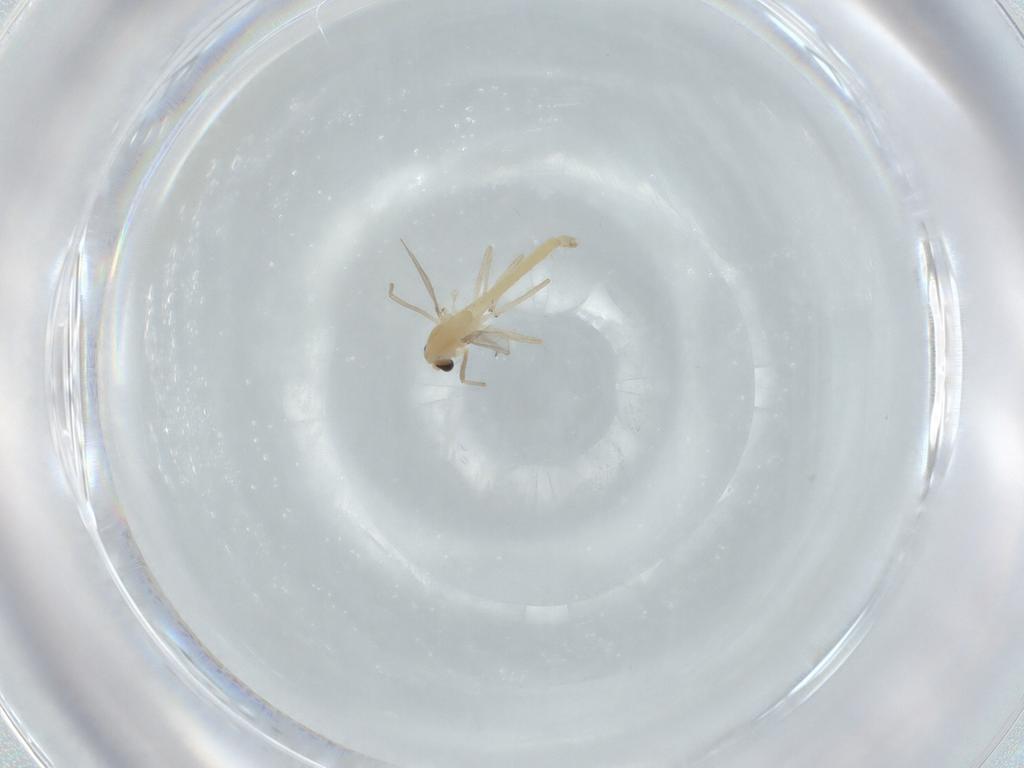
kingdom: Animalia
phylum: Arthropoda
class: Insecta
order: Diptera
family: Chironomidae
